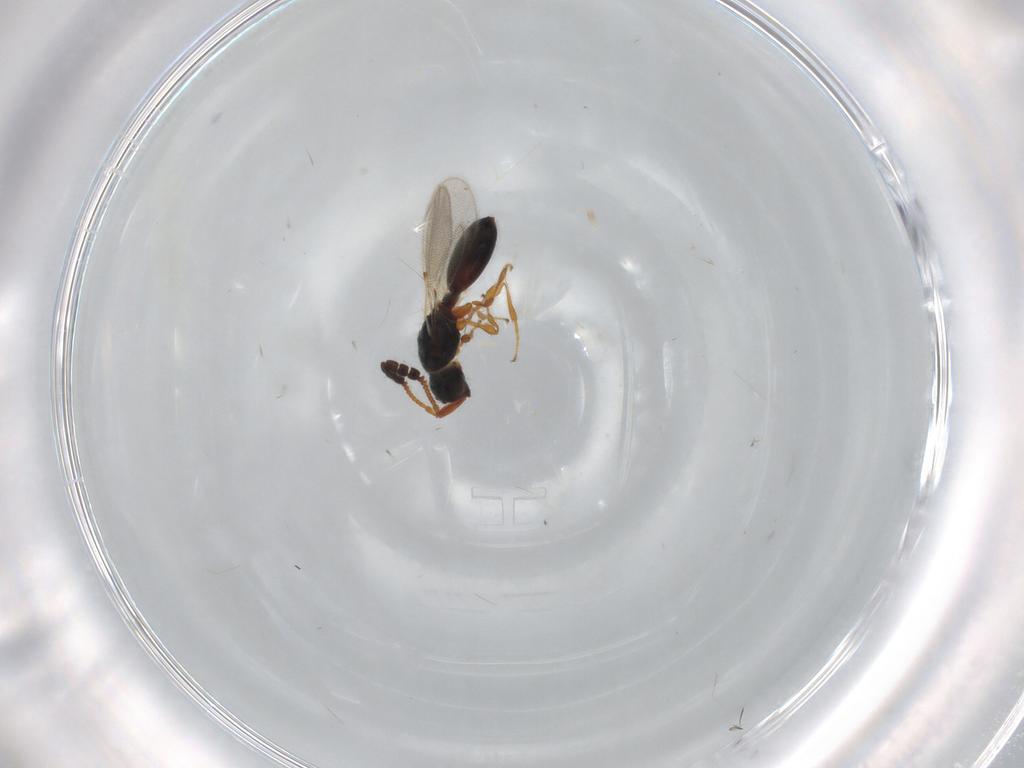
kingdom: Animalia
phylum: Arthropoda
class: Insecta
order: Hymenoptera
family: Diapriidae
